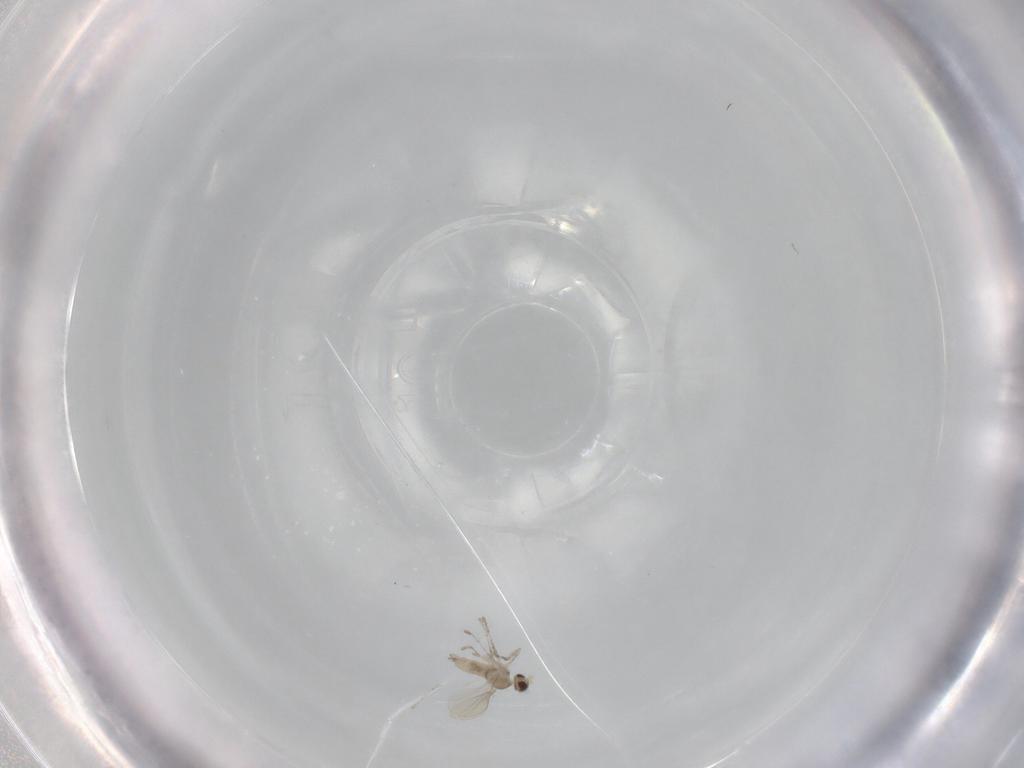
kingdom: Animalia
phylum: Arthropoda
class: Insecta
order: Diptera
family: Cecidomyiidae
